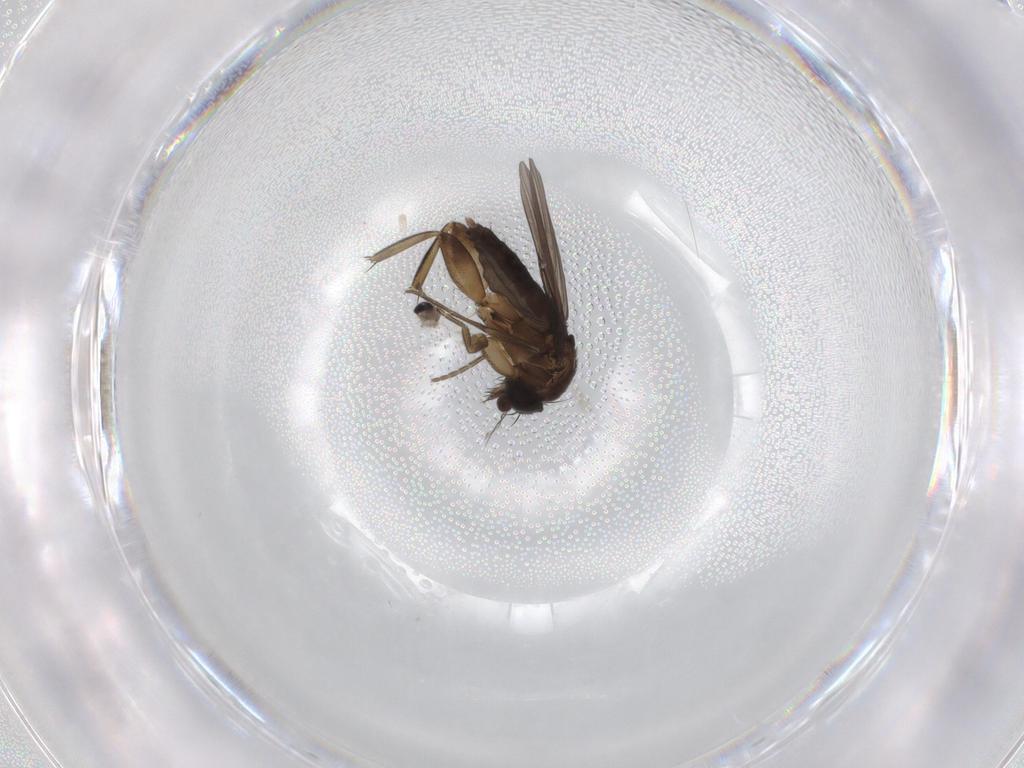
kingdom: Animalia
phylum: Arthropoda
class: Insecta
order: Diptera
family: Phoridae
